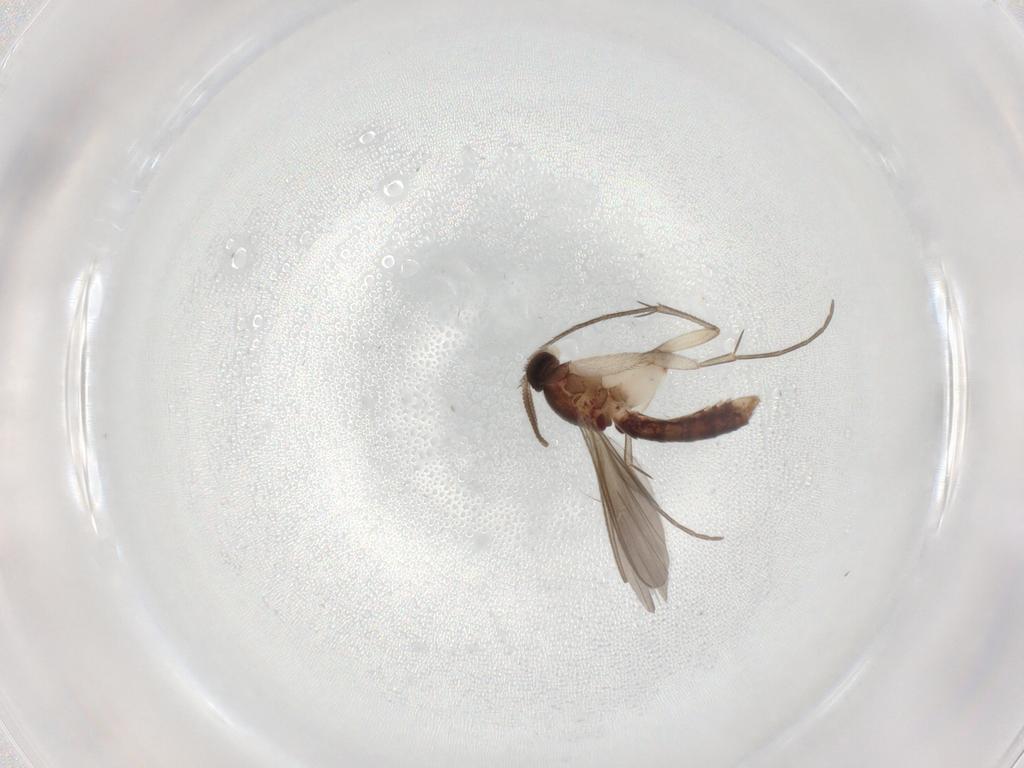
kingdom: Animalia
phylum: Arthropoda
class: Insecta
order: Diptera
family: Mycetophilidae
